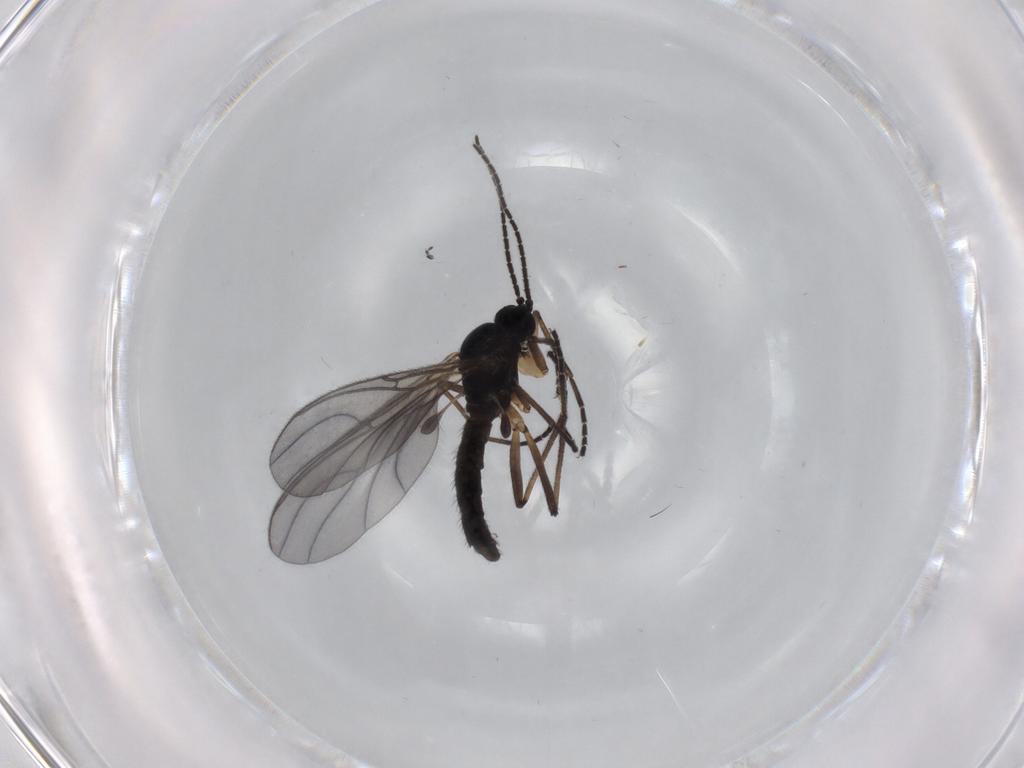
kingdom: Animalia
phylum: Arthropoda
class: Insecta
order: Diptera
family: Sciaridae
